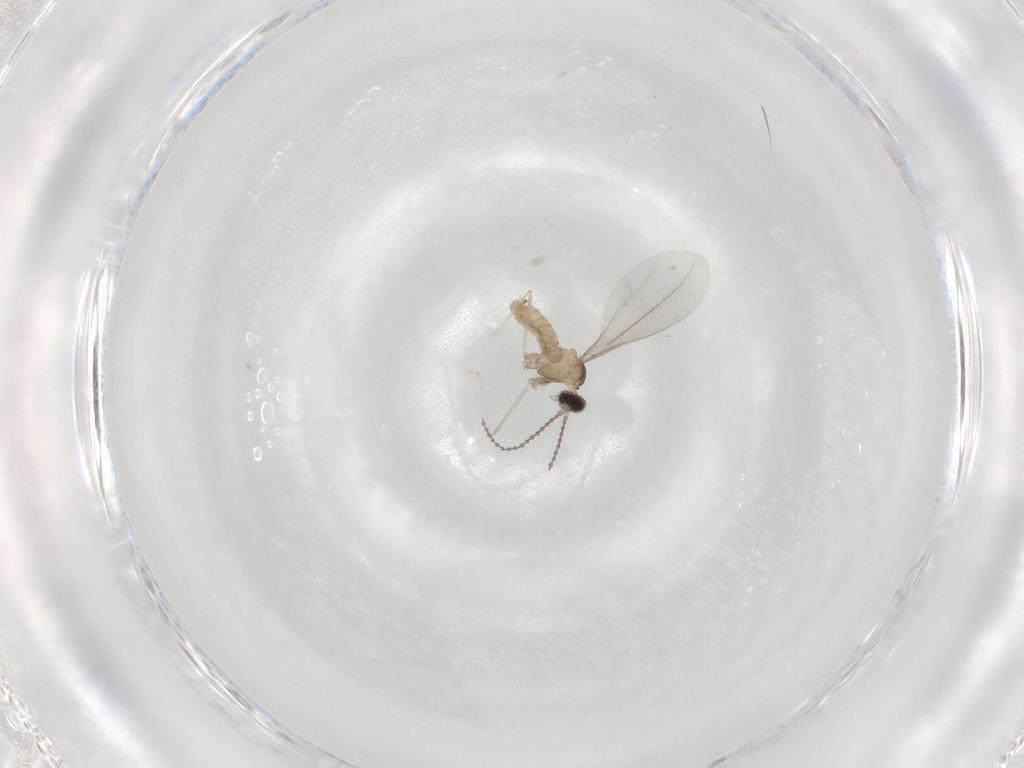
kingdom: Animalia
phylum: Arthropoda
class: Insecta
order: Diptera
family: Cecidomyiidae
